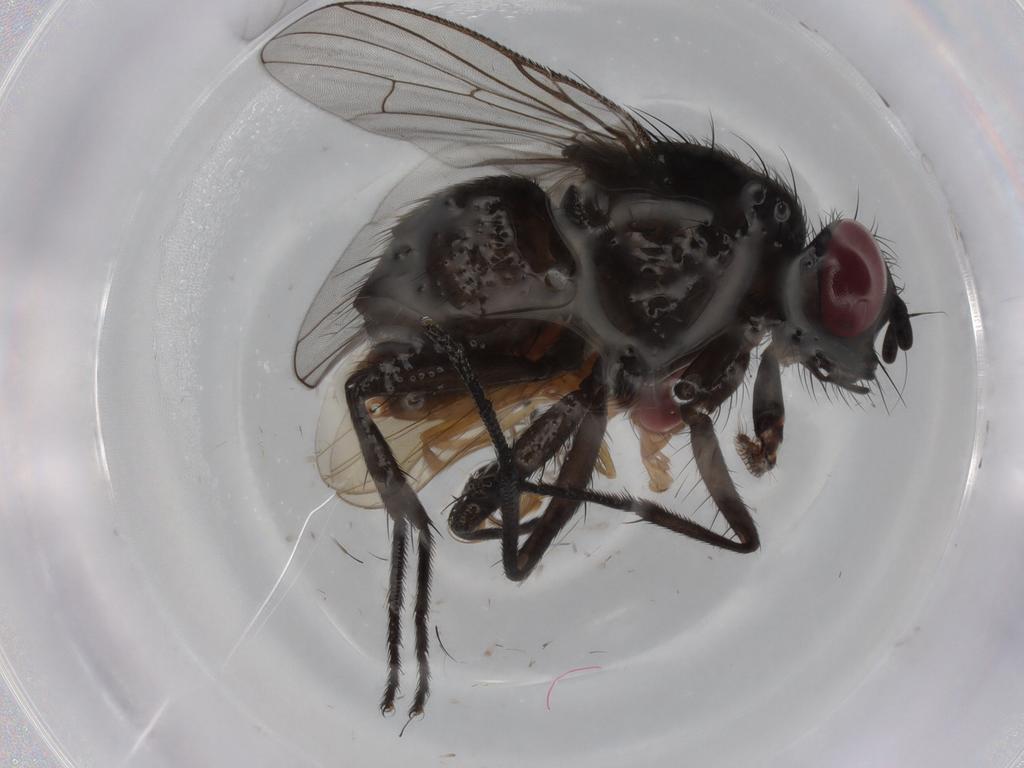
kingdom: Animalia
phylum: Arthropoda
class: Insecta
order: Diptera
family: Drosophilidae
